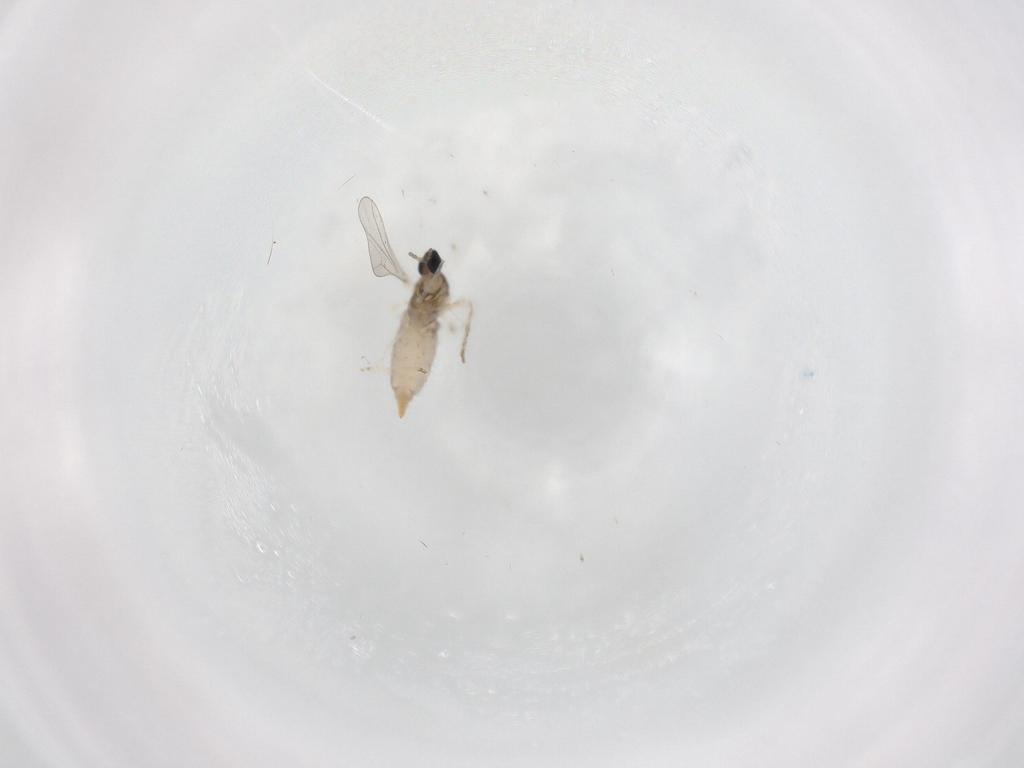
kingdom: Animalia
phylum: Arthropoda
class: Insecta
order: Diptera
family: Cecidomyiidae
